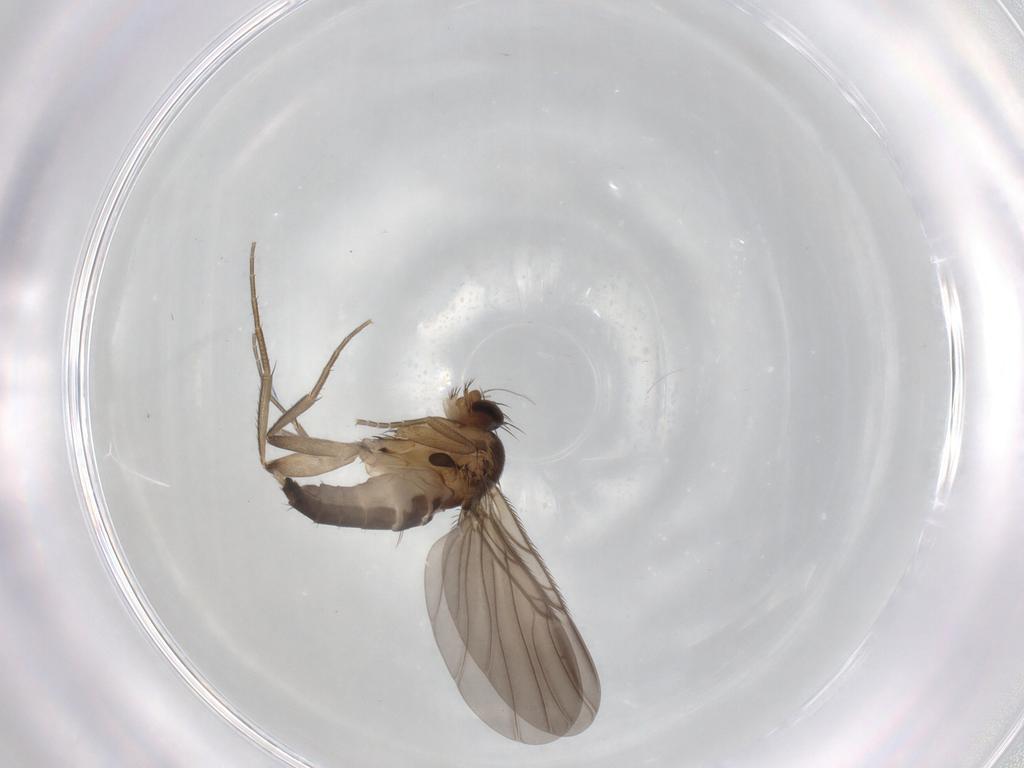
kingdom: Animalia
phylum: Arthropoda
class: Insecta
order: Diptera
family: Phoridae
